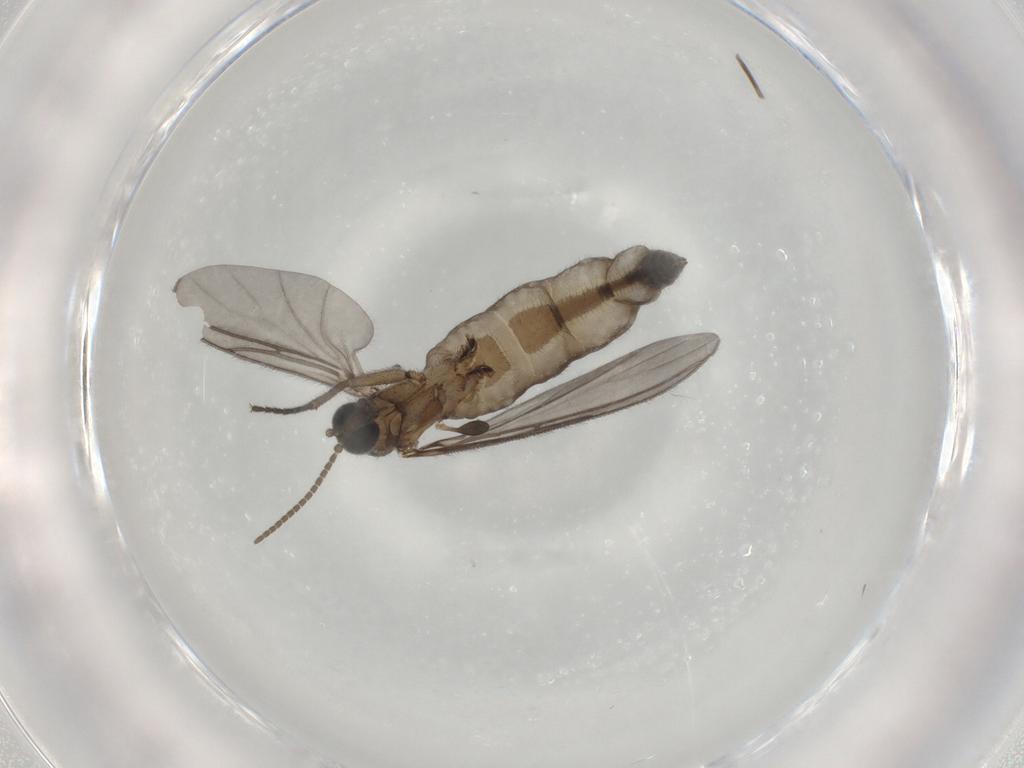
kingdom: Animalia
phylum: Arthropoda
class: Insecta
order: Diptera
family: Sciaridae
